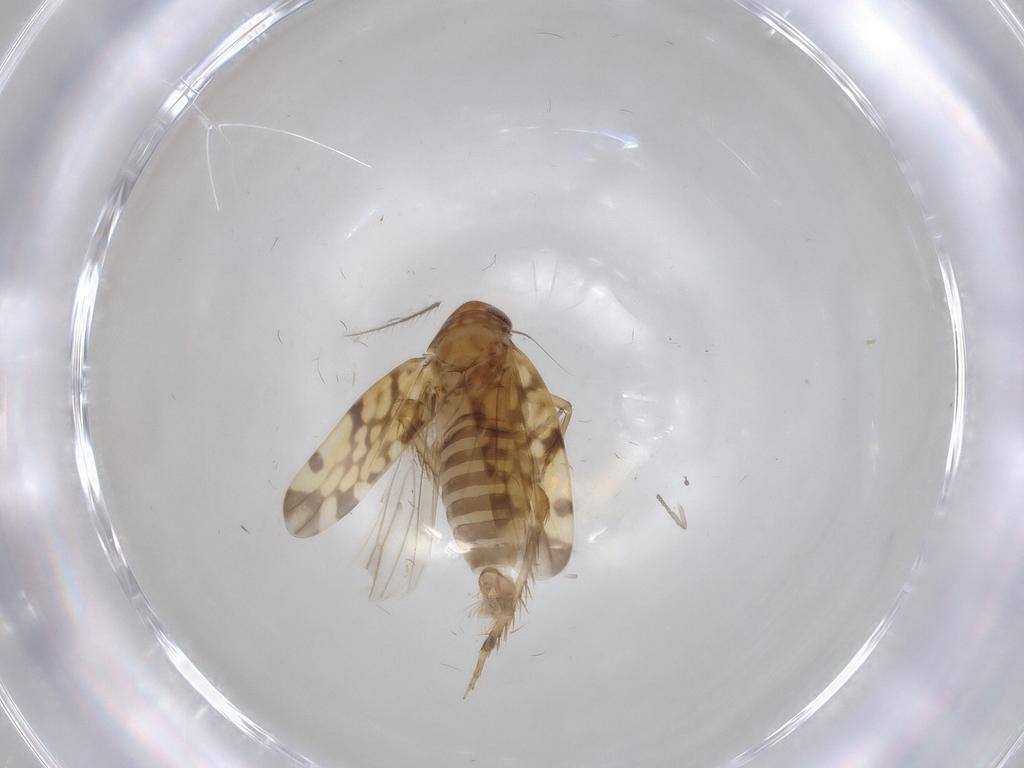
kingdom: Animalia
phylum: Arthropoda
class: Insecta
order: Hemiptera
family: Cicadellidae
